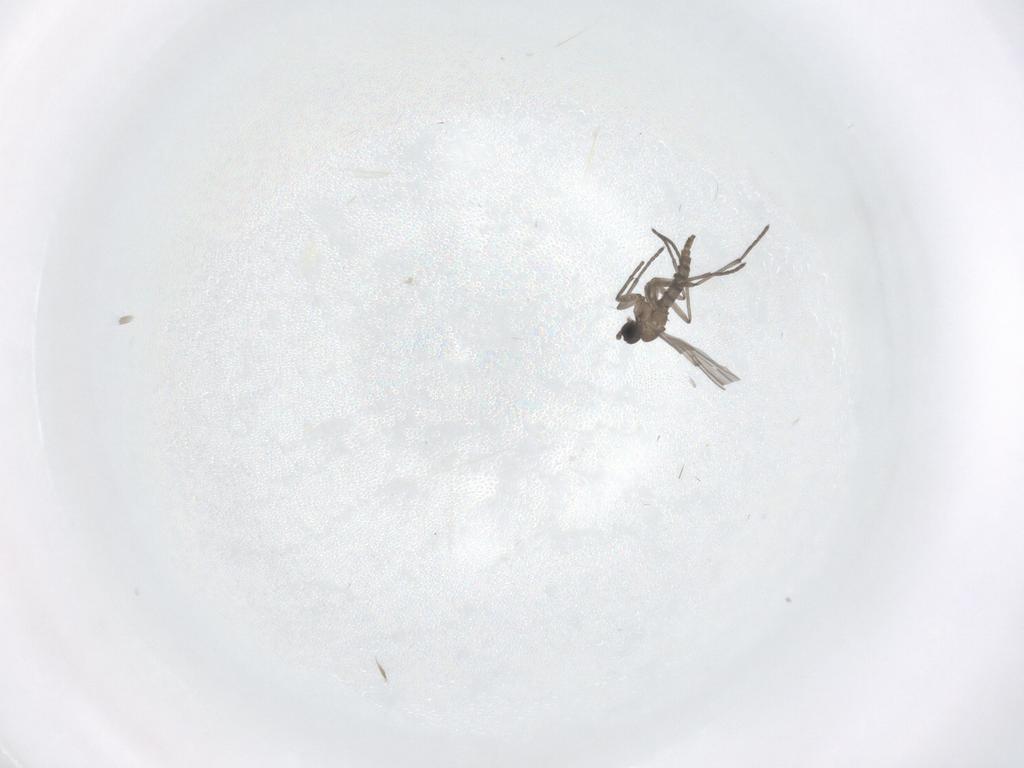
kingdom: Animalia
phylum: Arthropoda
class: Insecta
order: Diptera
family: Cecidomyiidae
